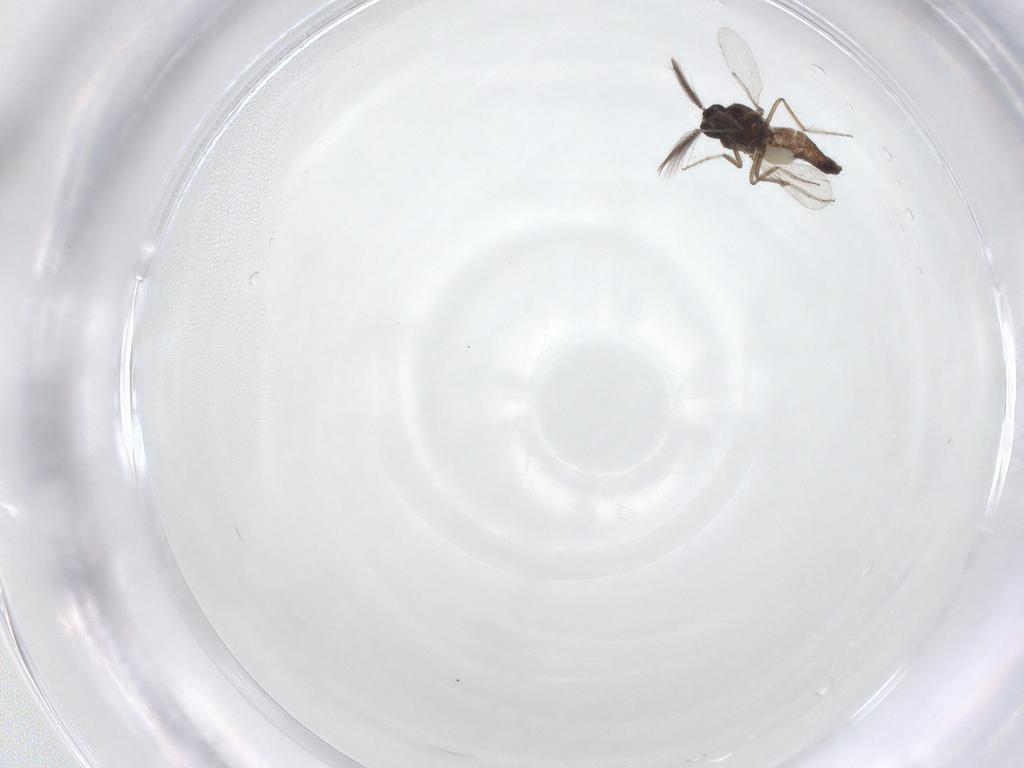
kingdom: Animalia
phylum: Arthropoda
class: Insecta
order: Diptera
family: Ceratopogonidae
